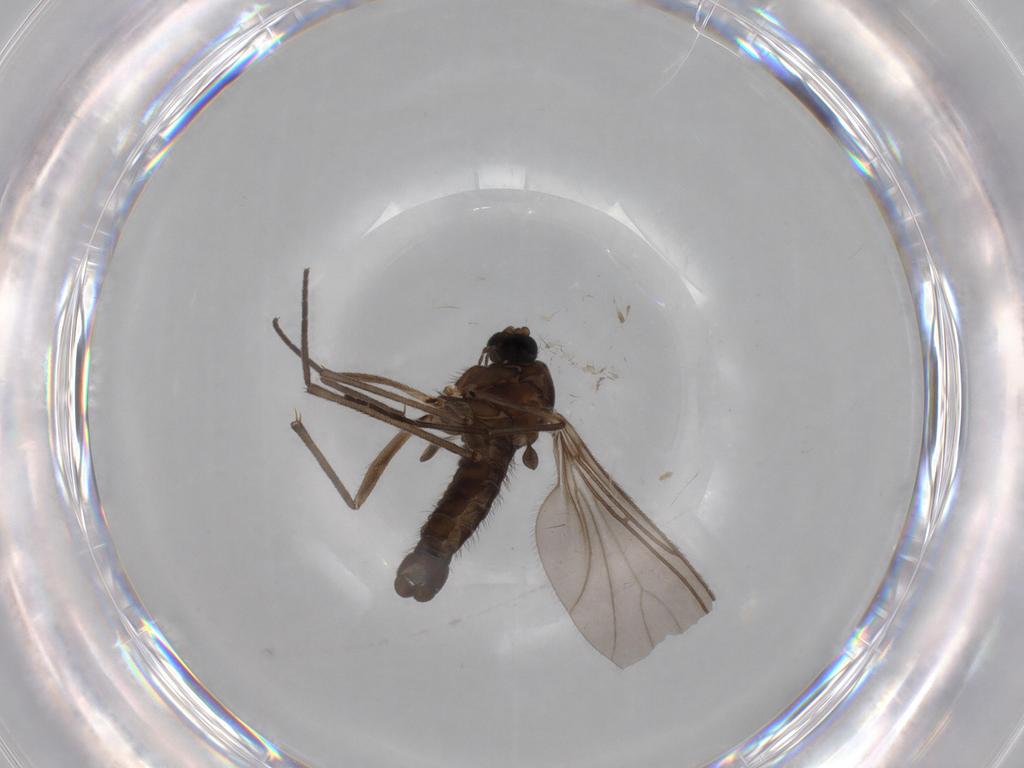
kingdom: Animalia
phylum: Arthropoda
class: Insecta
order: Diptera
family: Sciaridae
